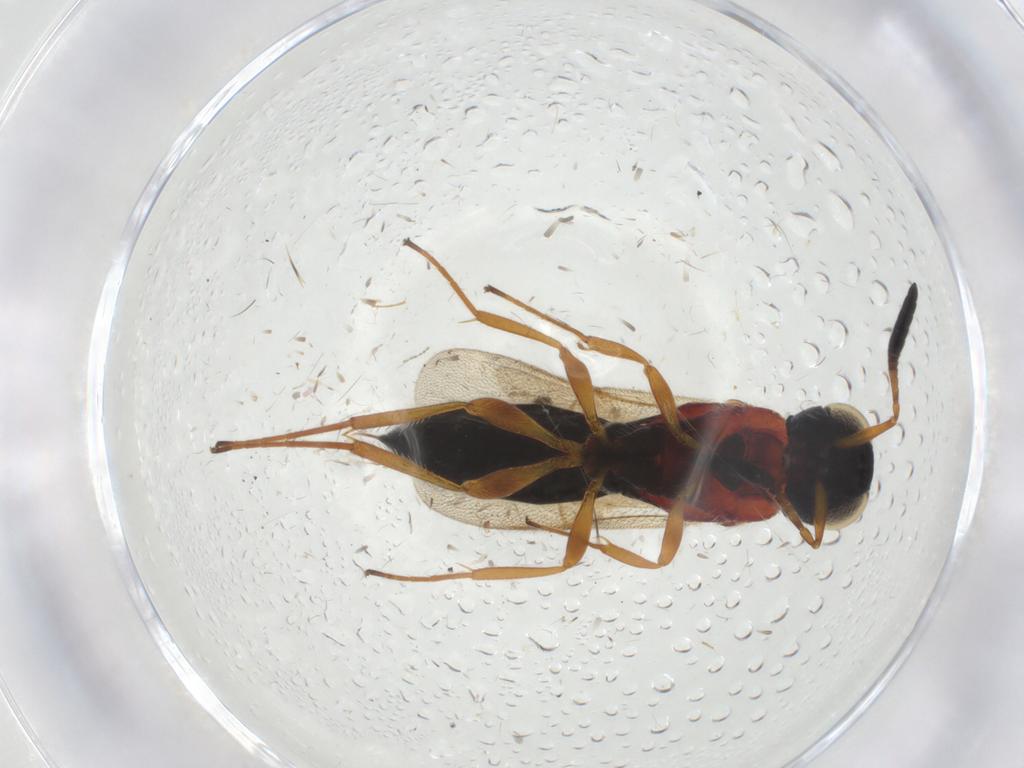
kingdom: Animalia
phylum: Arthropoda
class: Insecta
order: Hymenoptera
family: Scelionidae
